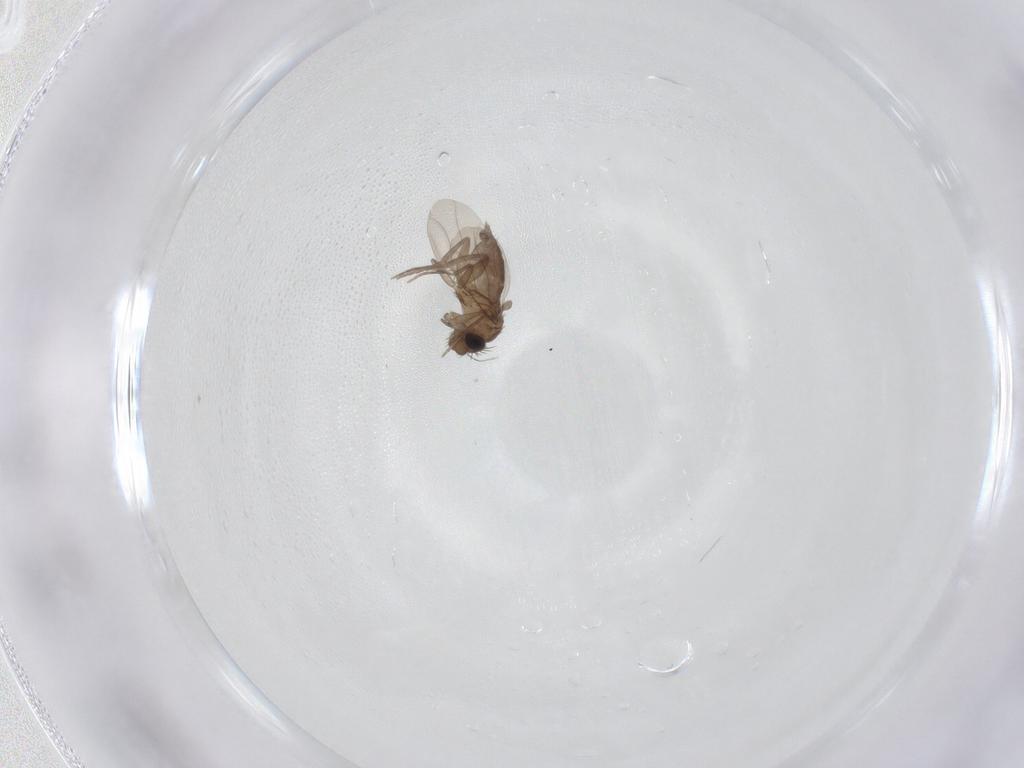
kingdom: Animalia
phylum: Arthropoda
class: Insecta
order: Diptera
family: Phoridae
